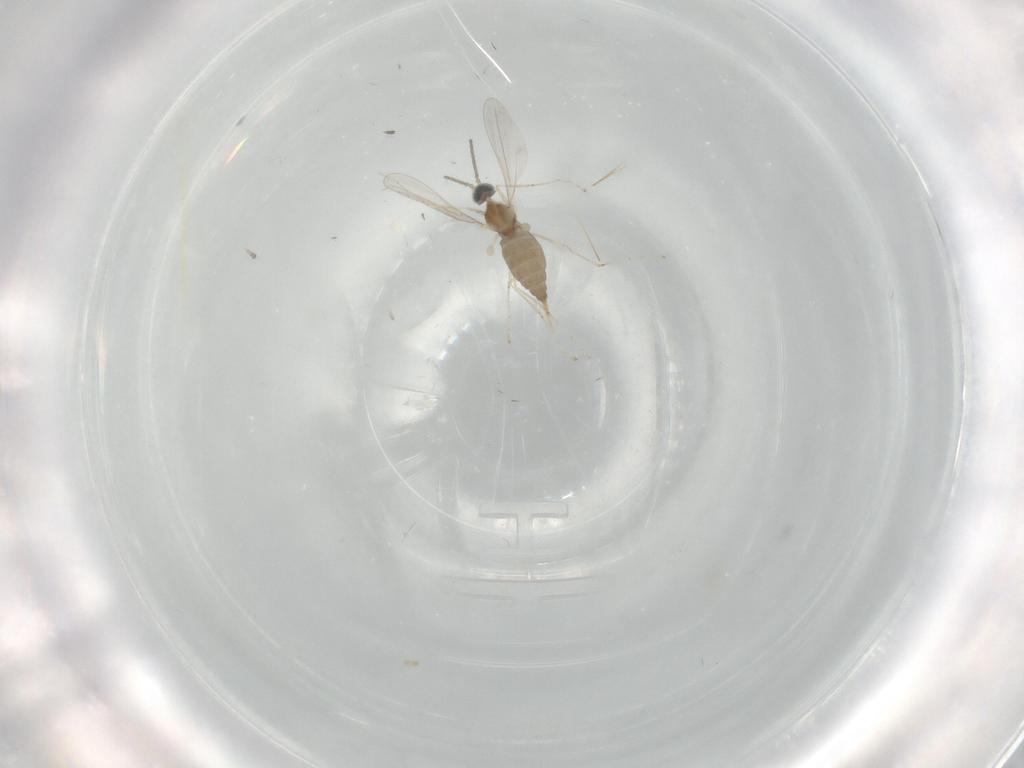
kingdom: Animalia
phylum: Arthropoda
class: Insecta
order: Diptera
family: Cecidomyiidae
